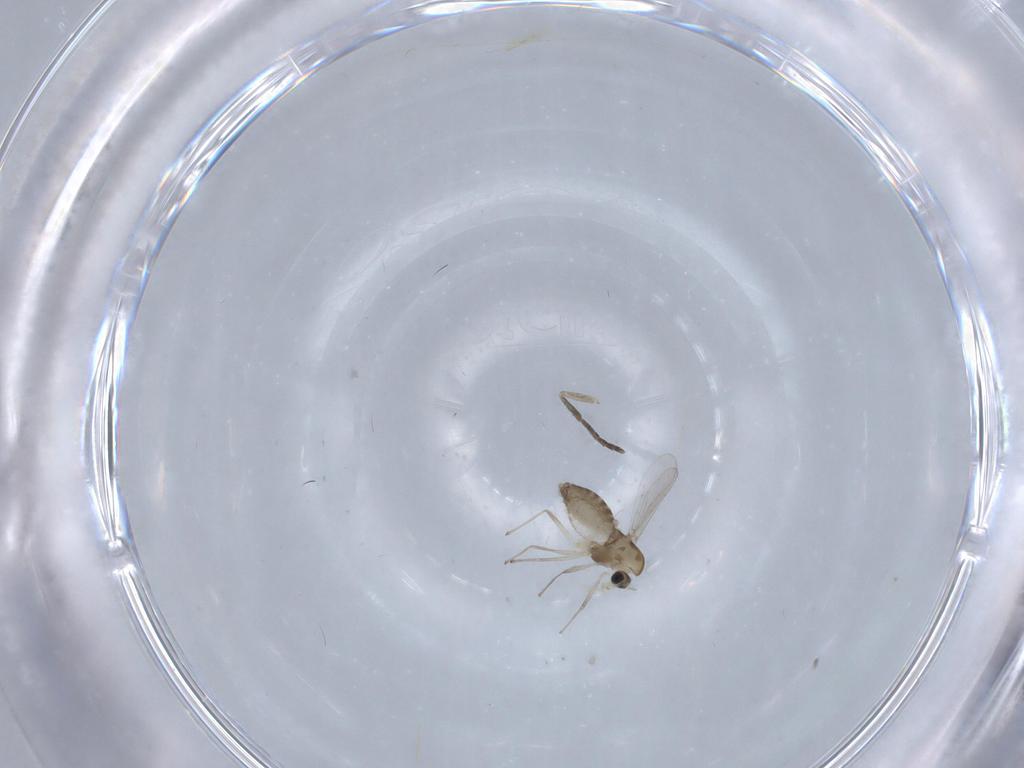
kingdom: Animalia
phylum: Arthropoda
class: Insecta
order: Diptera
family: Chironomidae
